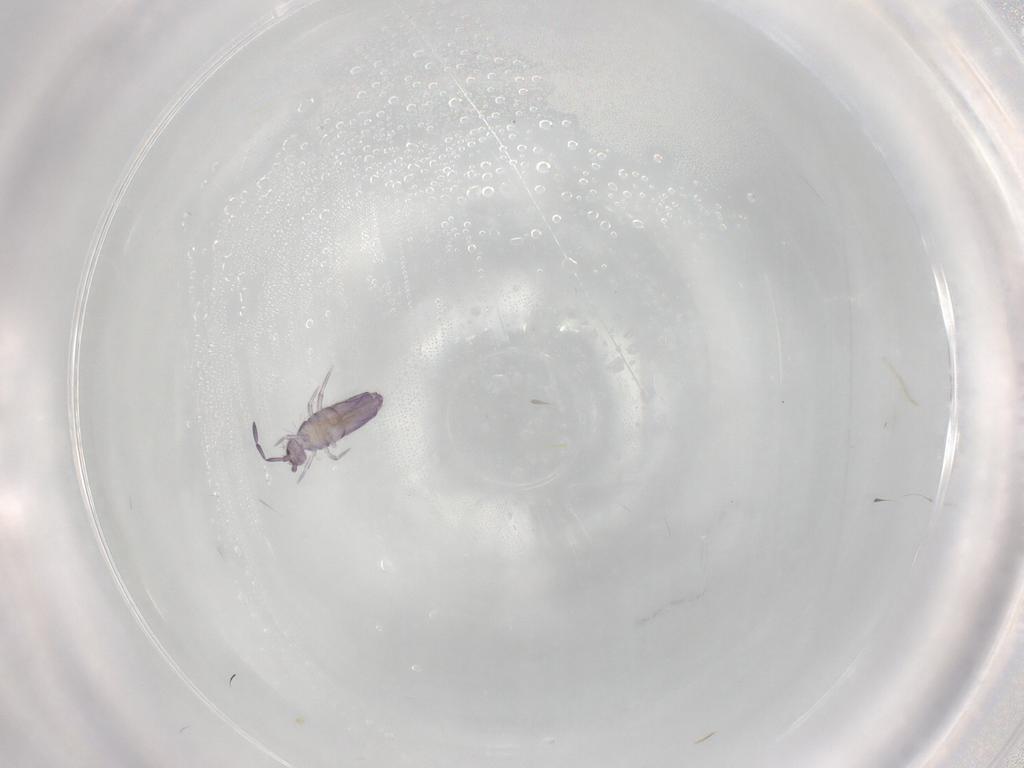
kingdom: Animalia
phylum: Arthropoda
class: Collembola
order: Entomobryomorpha
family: Entomobryidae
